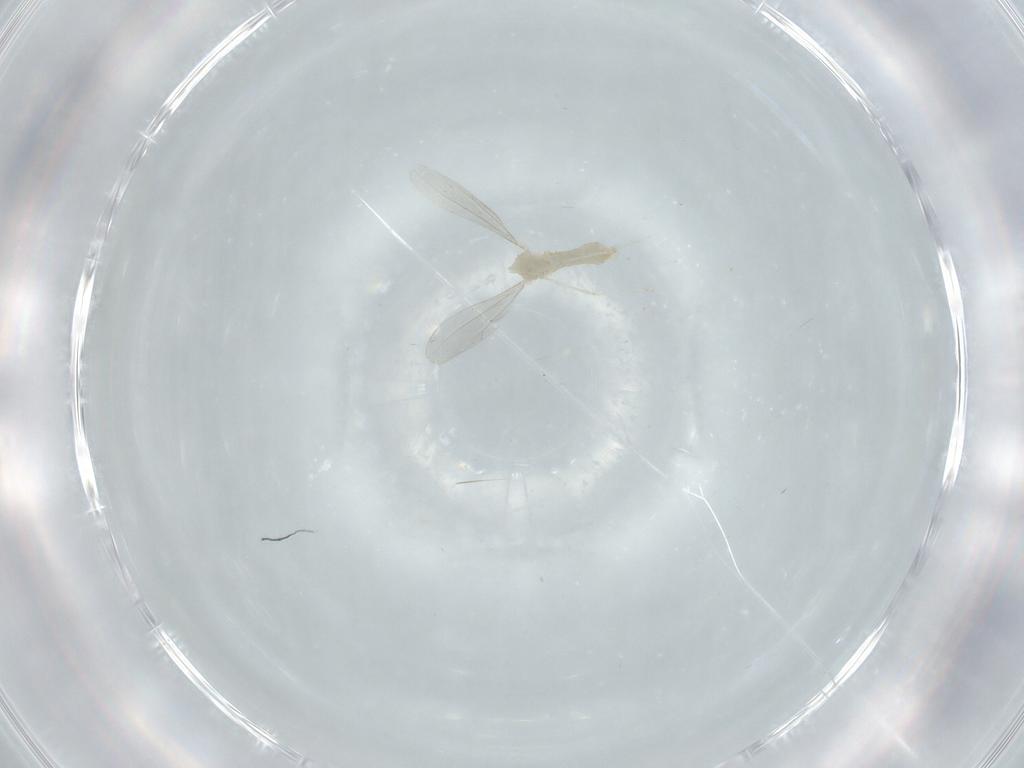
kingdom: Animalia
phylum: Arthropoda
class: Insecta
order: Diptera
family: Cecidomyiidae
